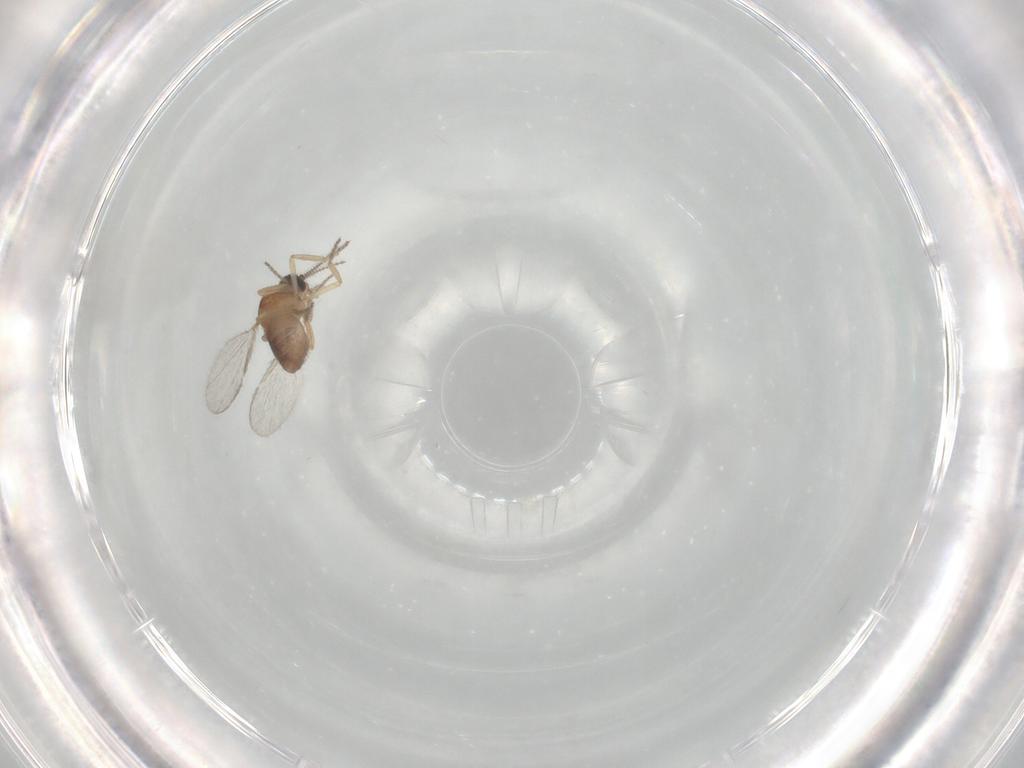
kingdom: Animalia
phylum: Arthropoda
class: Insecta
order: Diptera
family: Ceratopogonidae
